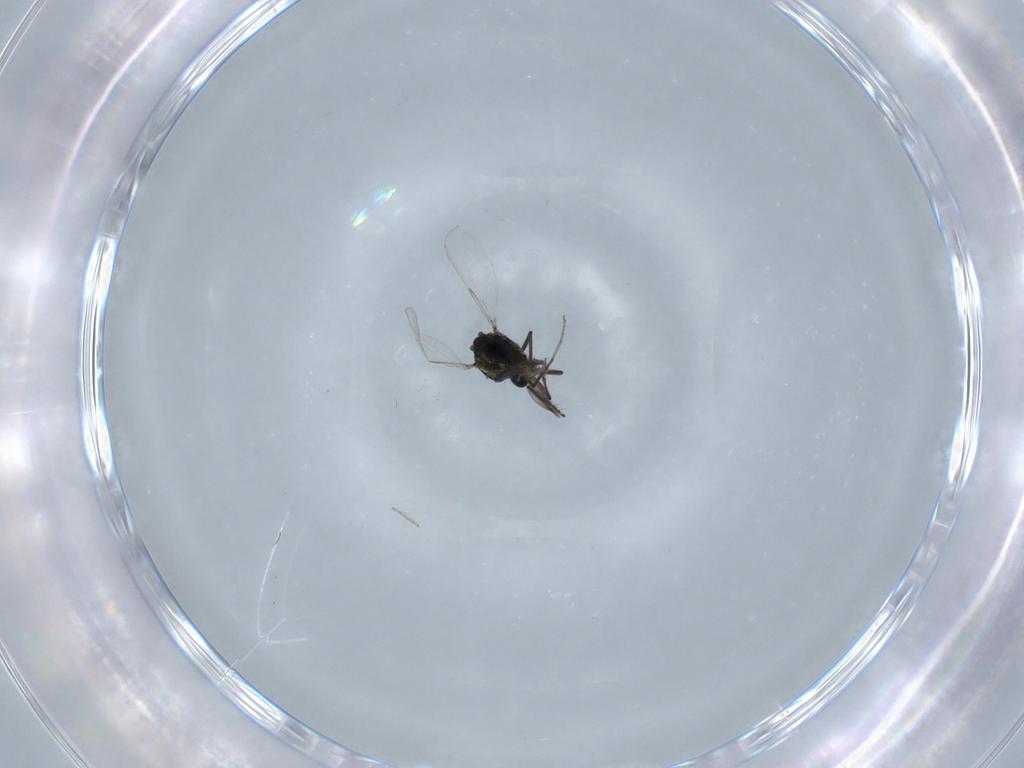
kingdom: Animalia
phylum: Arthropoda
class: Insecta
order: Diptera
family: Ceratopogonidae
